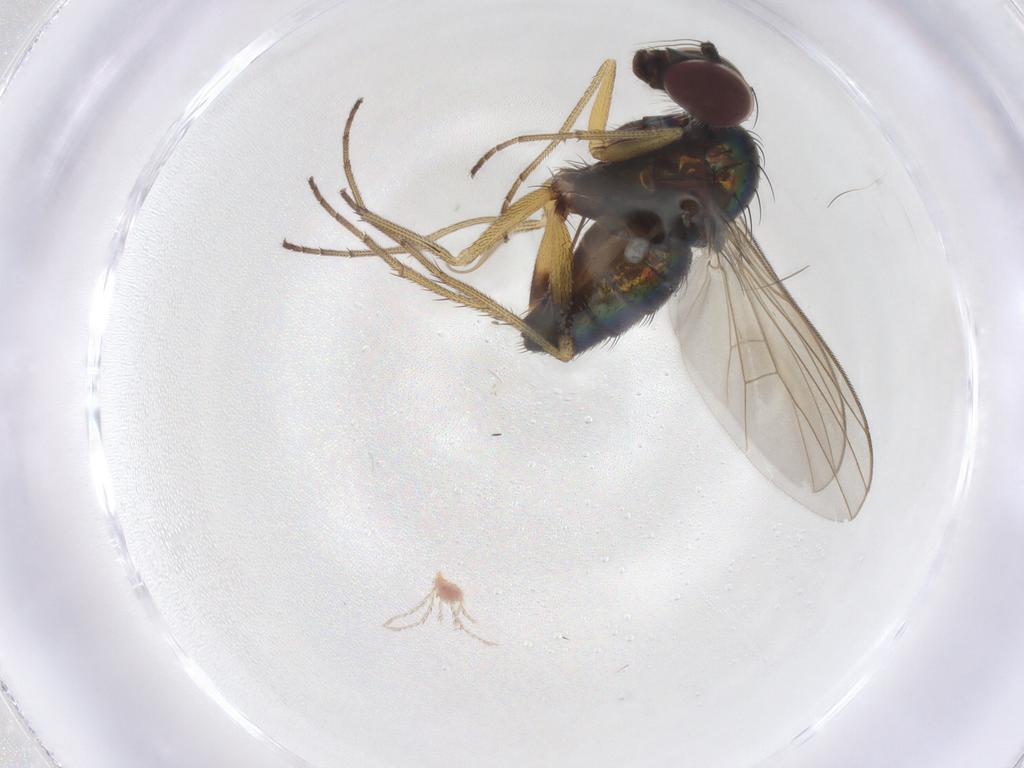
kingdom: Animalia
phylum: Arthropoda
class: Insecta
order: Diptera
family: Dolichopodidae
